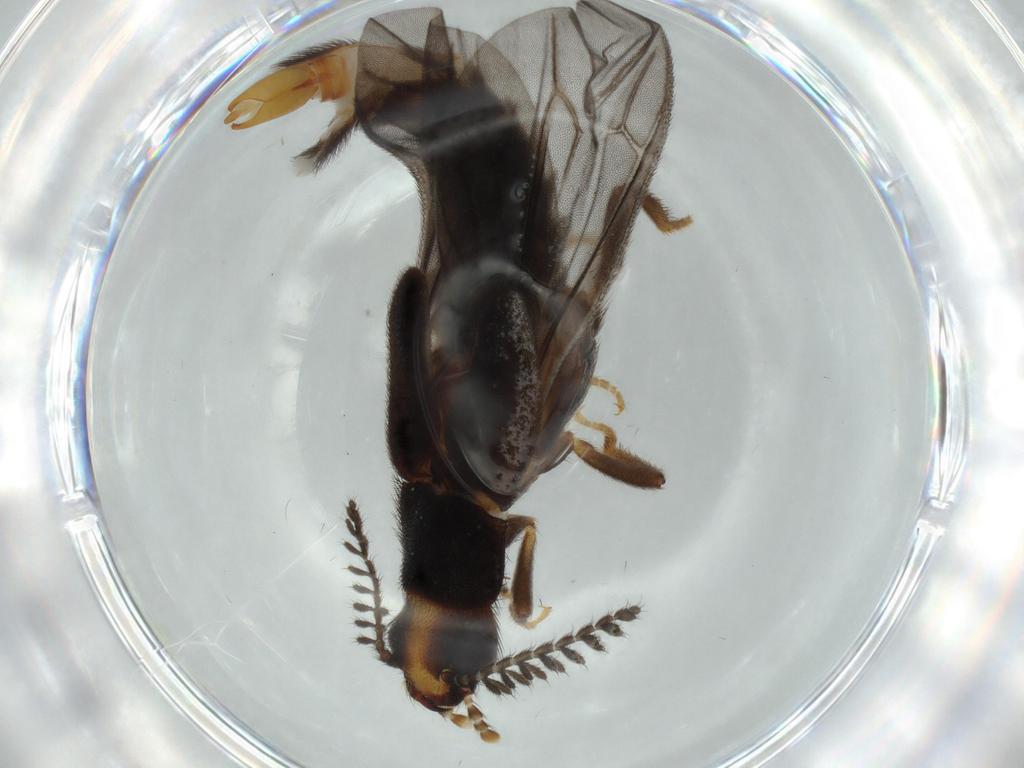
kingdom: Animalia
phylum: Arthropoda
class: Insecta
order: Coleoptera
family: Phengodidae
